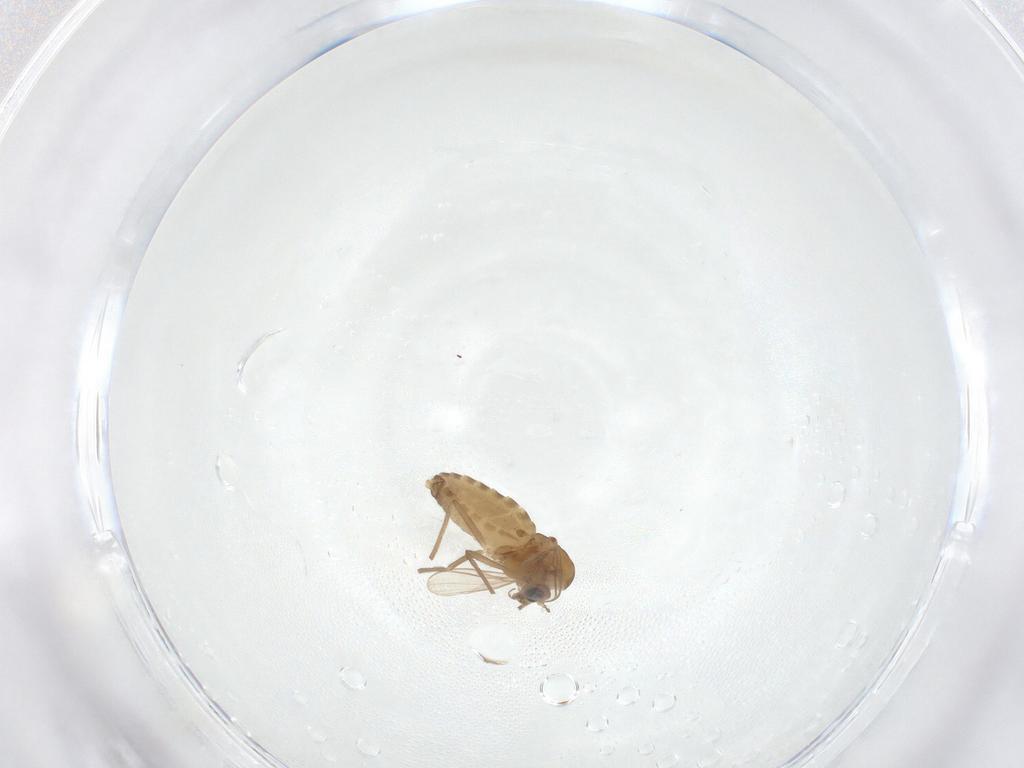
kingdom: Animalia
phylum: Arthropoda
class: Insecta
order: Diptera
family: Chironomidae
